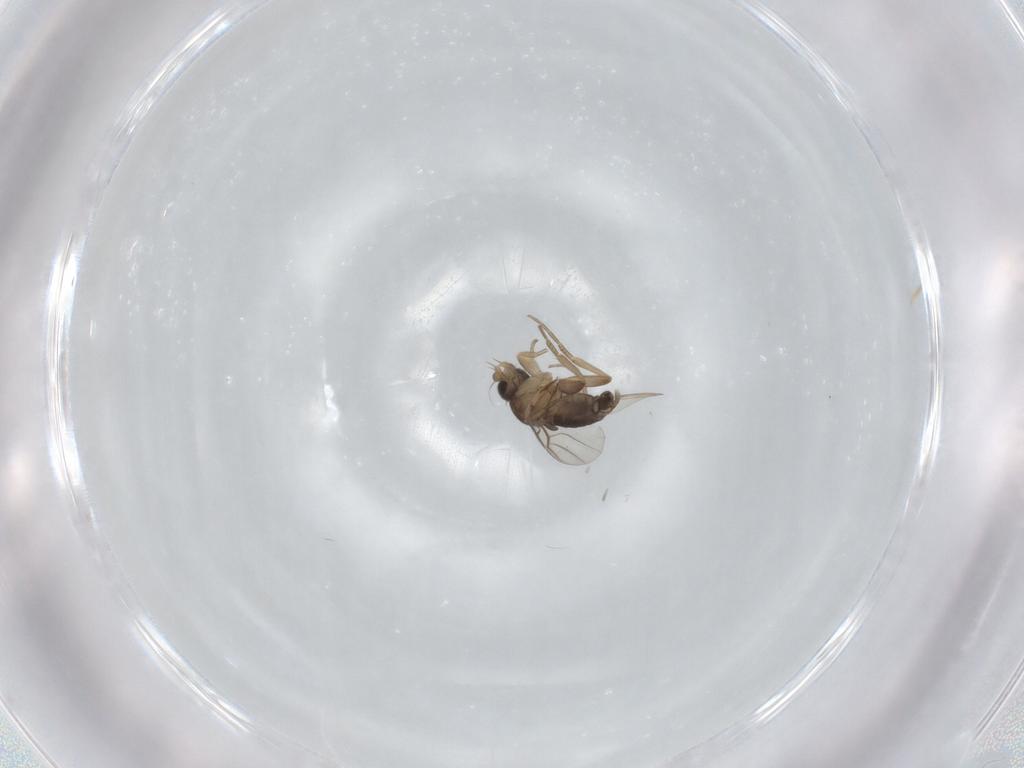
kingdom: Animalia
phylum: Arthropoda
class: Insecta
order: Diptera
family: Phoridae
